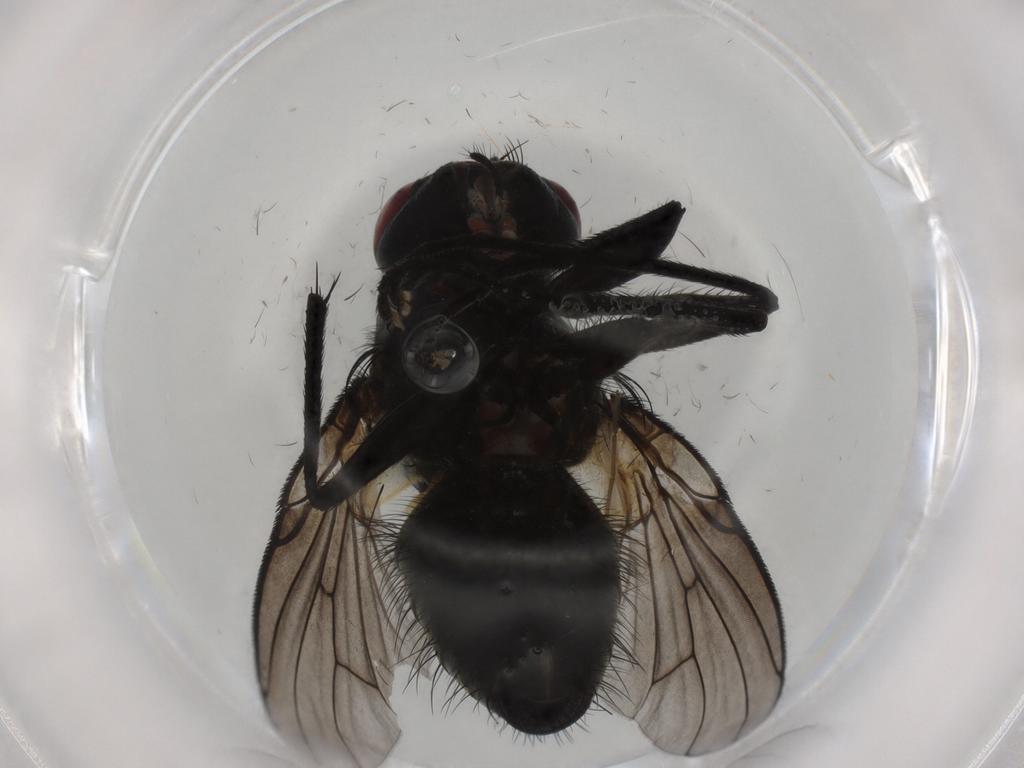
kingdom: Animalia
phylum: Arthropoda
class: Insecta
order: Diptera
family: Muscidae
